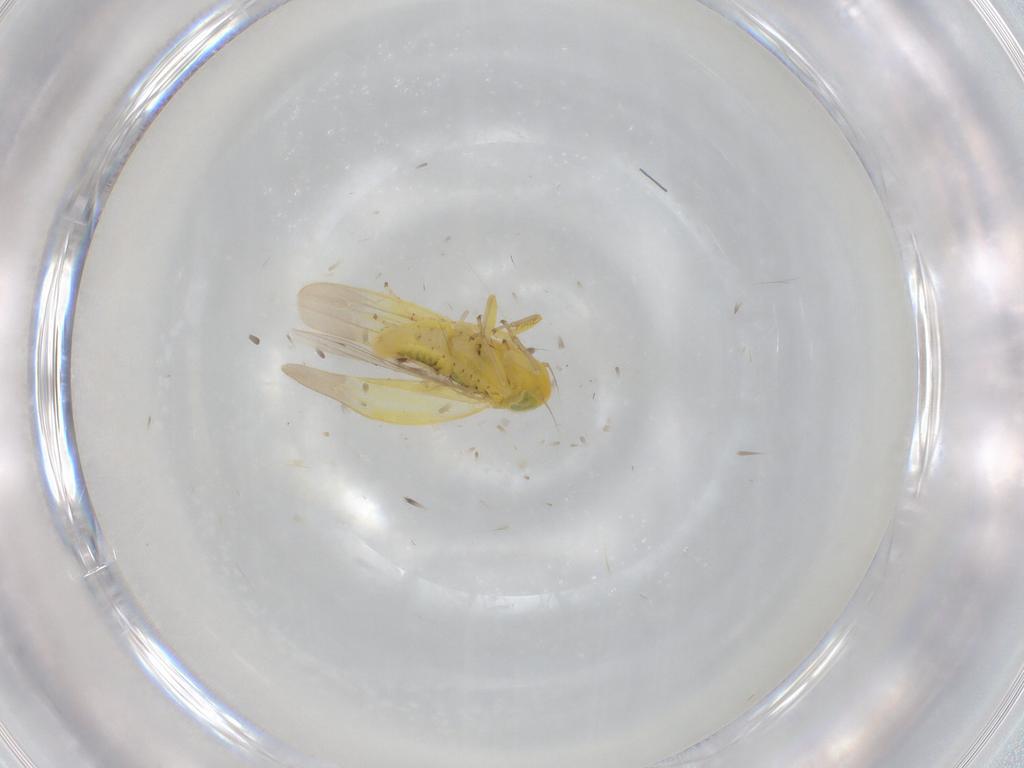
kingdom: Animalia
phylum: Arthropoda
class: Insecta
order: Hemiptera
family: Cicadellidae
